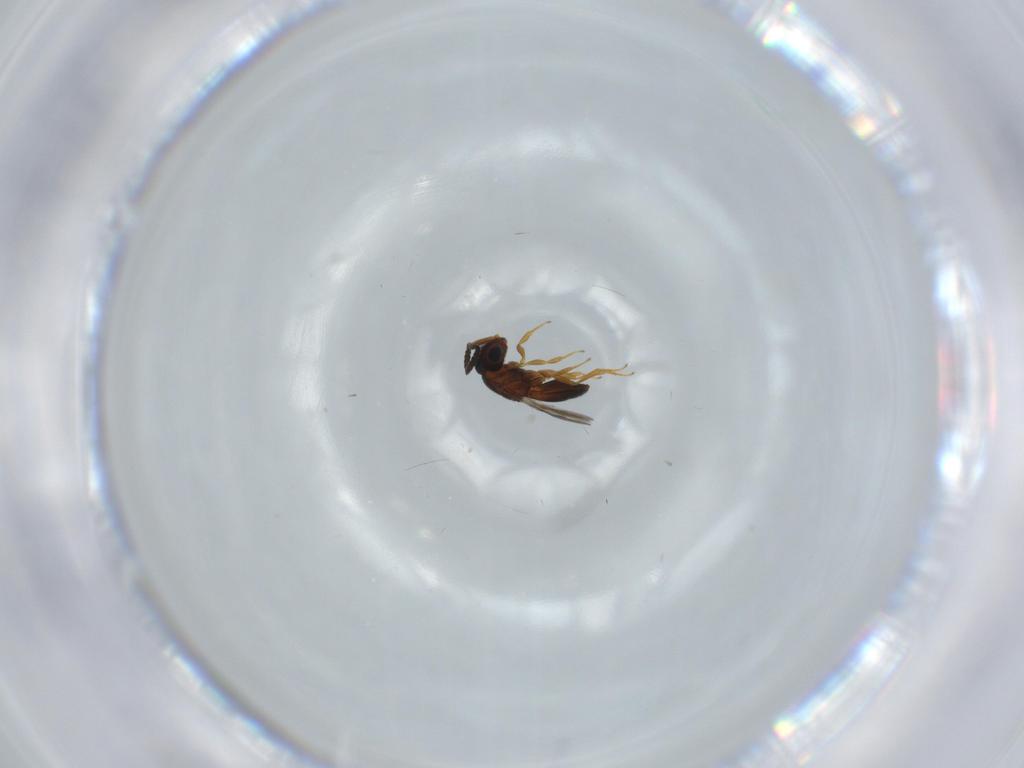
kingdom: Animalia
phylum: Arthropoda
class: Insecta
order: Hymenoptera
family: Scelionidae
